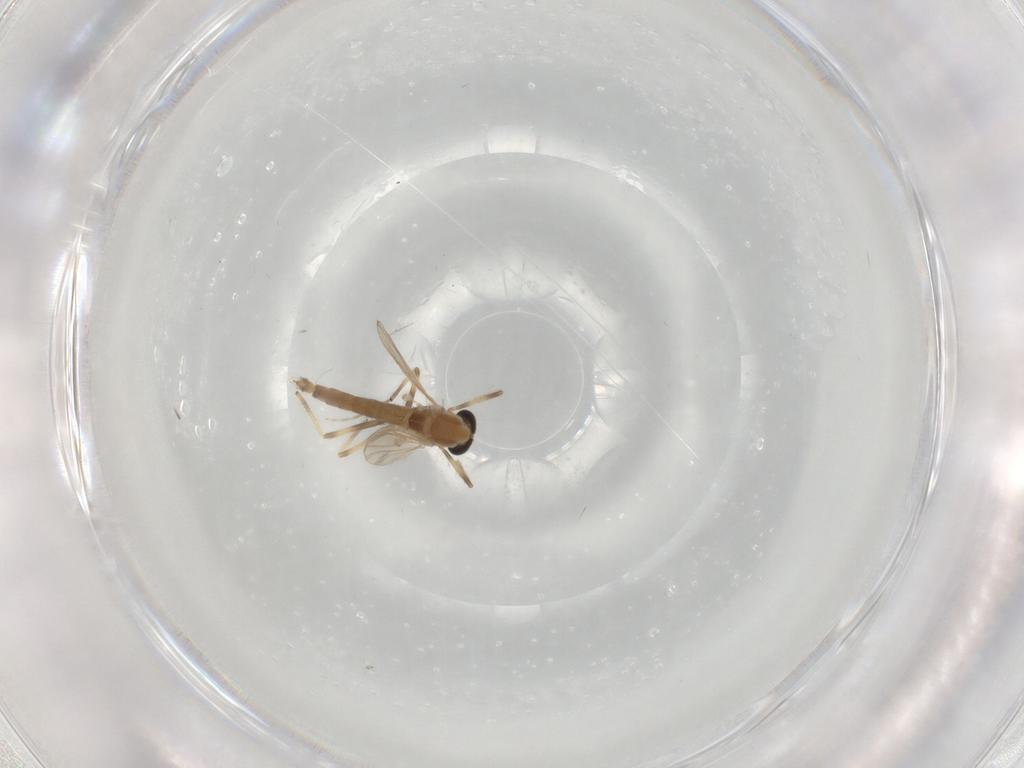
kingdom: Animalia
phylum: Arthropoda
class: Insecta
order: Diptera
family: Chironomidae
